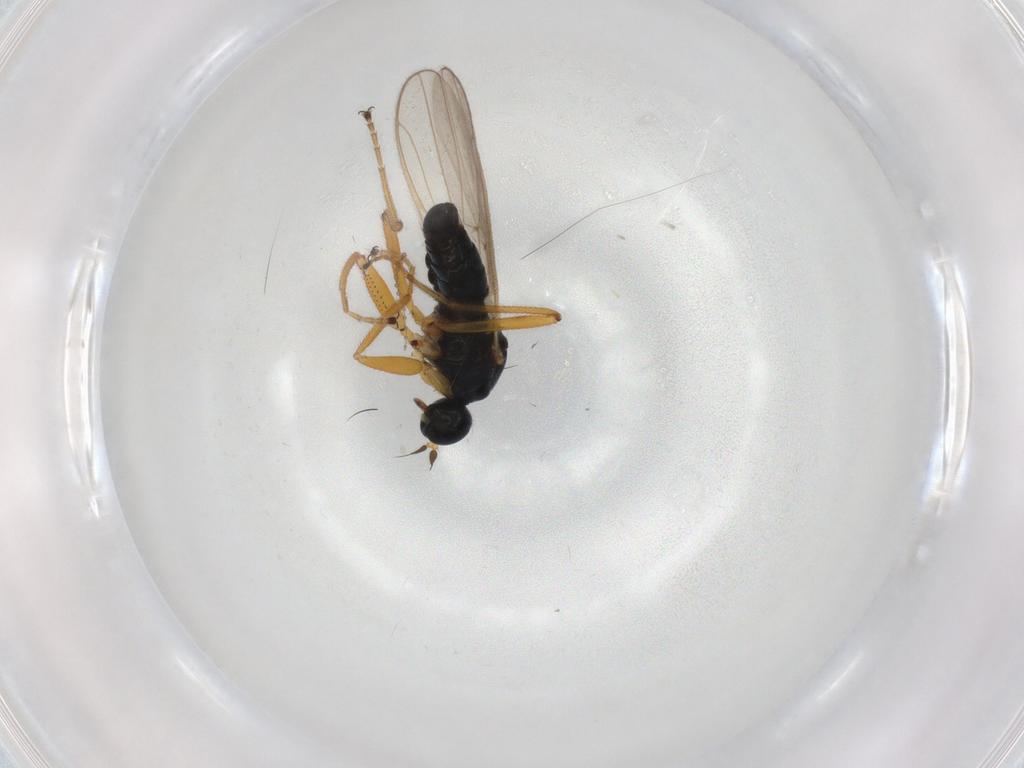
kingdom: Animalia
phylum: Arthropoda
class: Insecta
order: Diptera
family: Hybotidae
